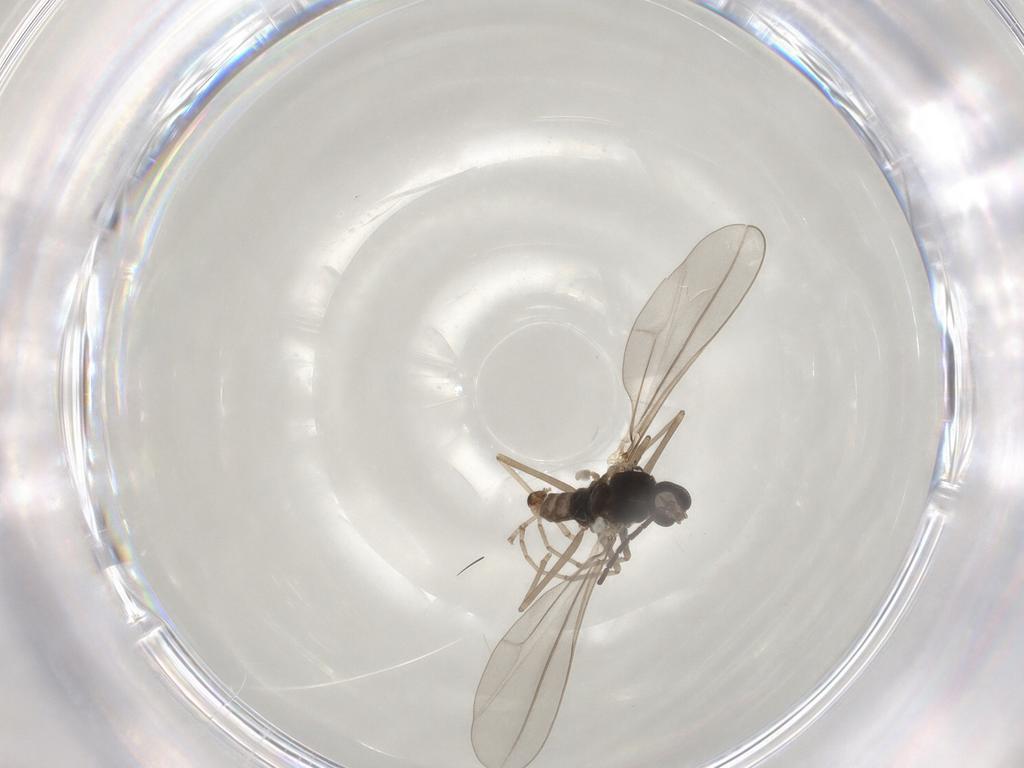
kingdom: Animalia
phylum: Arthropoda
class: Insecta
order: Diptera
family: Cecidomyiidae
